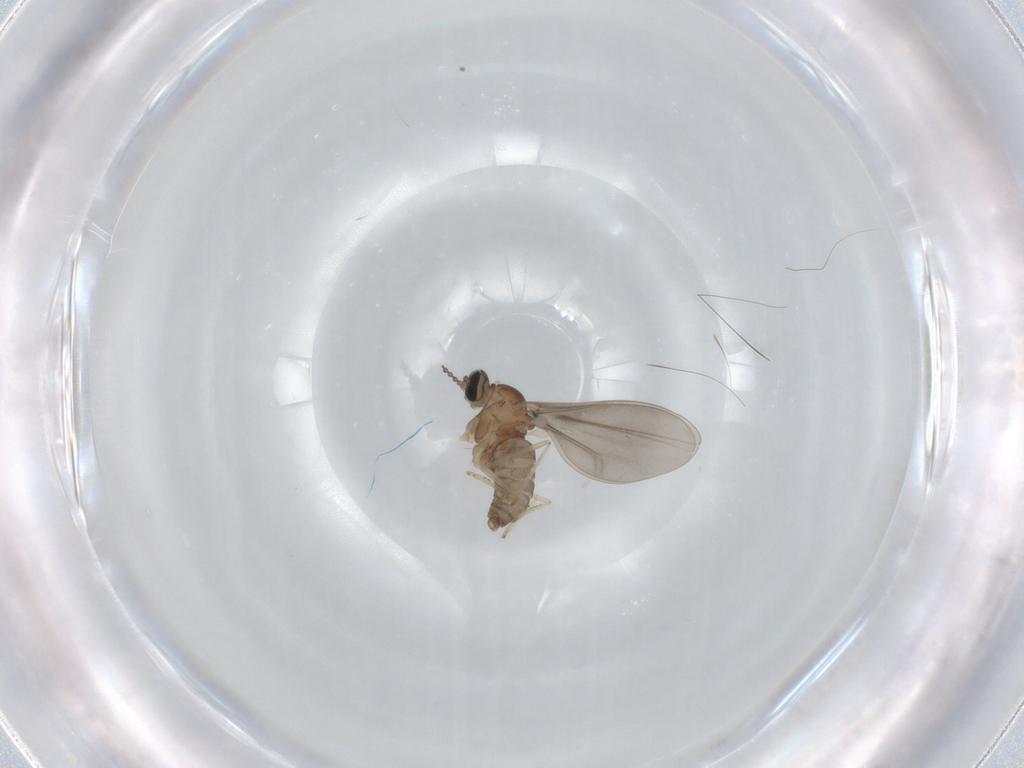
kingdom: Animalia
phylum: Arthropoda
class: Insecta
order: Diptera
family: Cecidomyiidae
